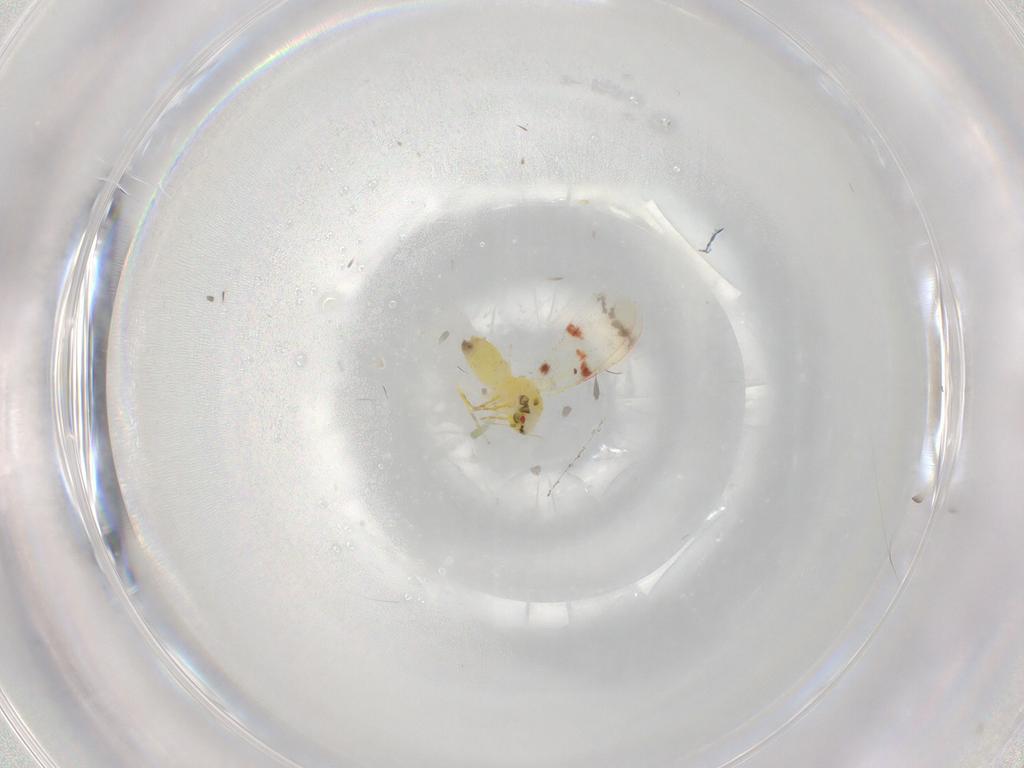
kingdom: Animalia
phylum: Arthropoda
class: Insecta
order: Hemiptera
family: Aleyrodidae
